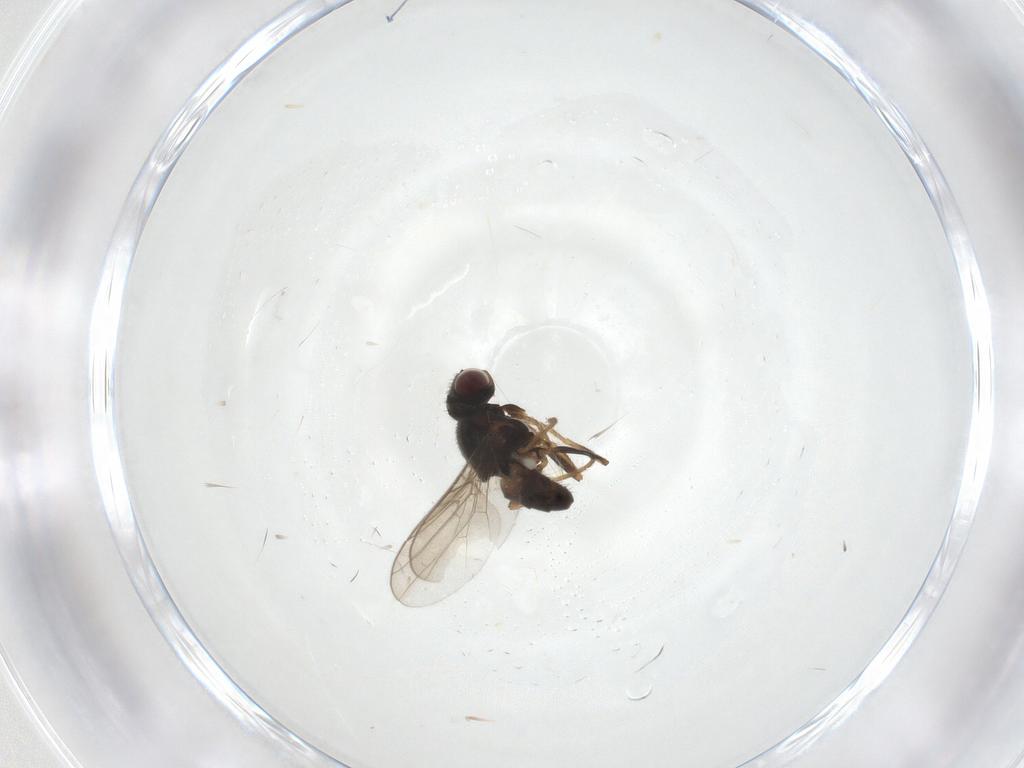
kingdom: Animalia
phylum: Arthropoda
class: Insecta
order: Diptera
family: Chloropidae
